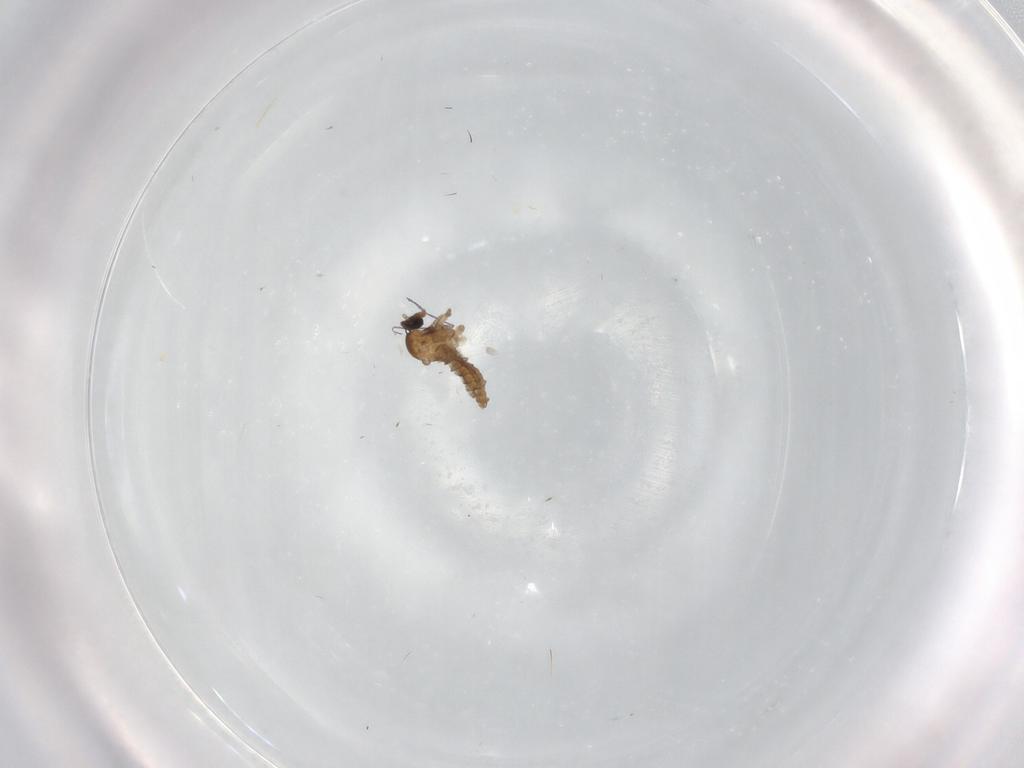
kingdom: Animalia
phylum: Arthropoda
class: Insecta
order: Diptera
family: Cecidomyiidae
